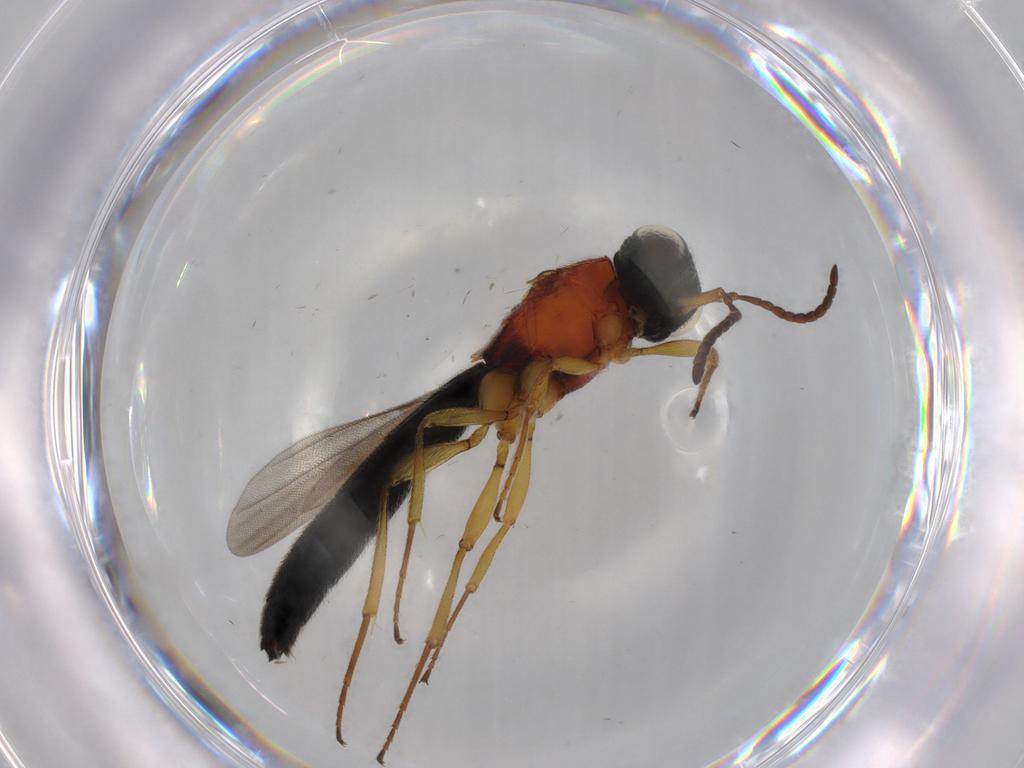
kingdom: Animalia
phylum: Arthropoda
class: Insecta
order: Hymenoptera
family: Scelionidae
